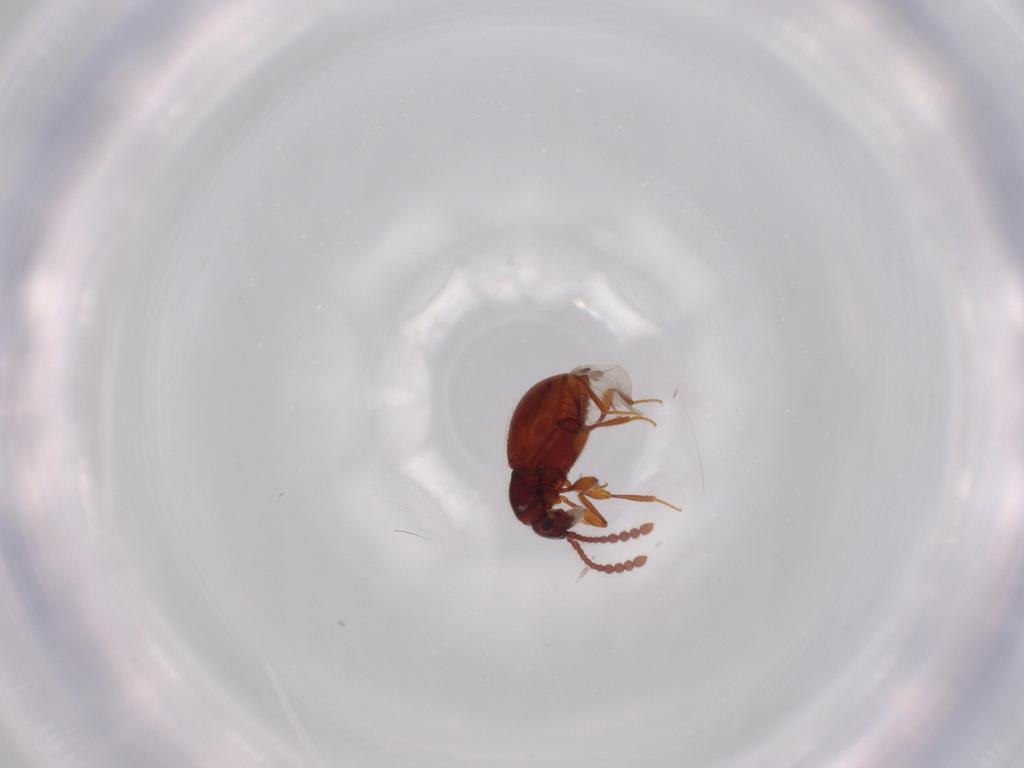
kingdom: Animalia
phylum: Arthropoda
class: Insecta
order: Coleoptera
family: Staphylinidae
